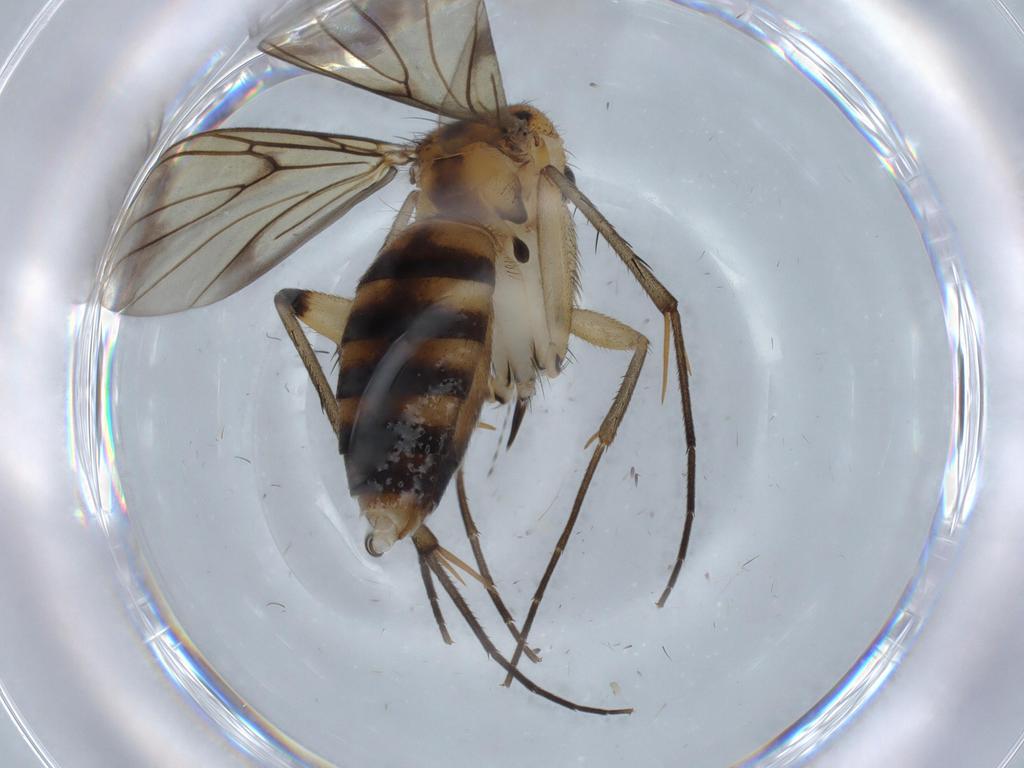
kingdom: Animalia
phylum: Arthropoda
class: Insecta
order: Diptera
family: Mycetophilidae
